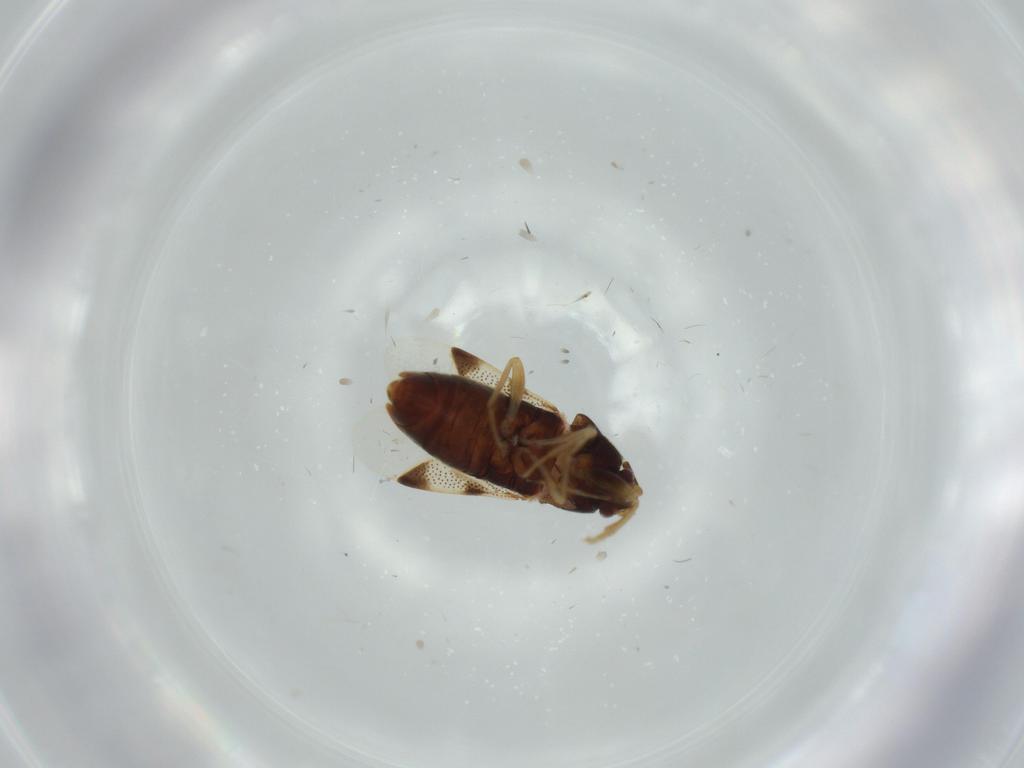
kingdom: Animalia
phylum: Arthropoda
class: Insecta
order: Hemiptera
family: Rhyparochromidae
